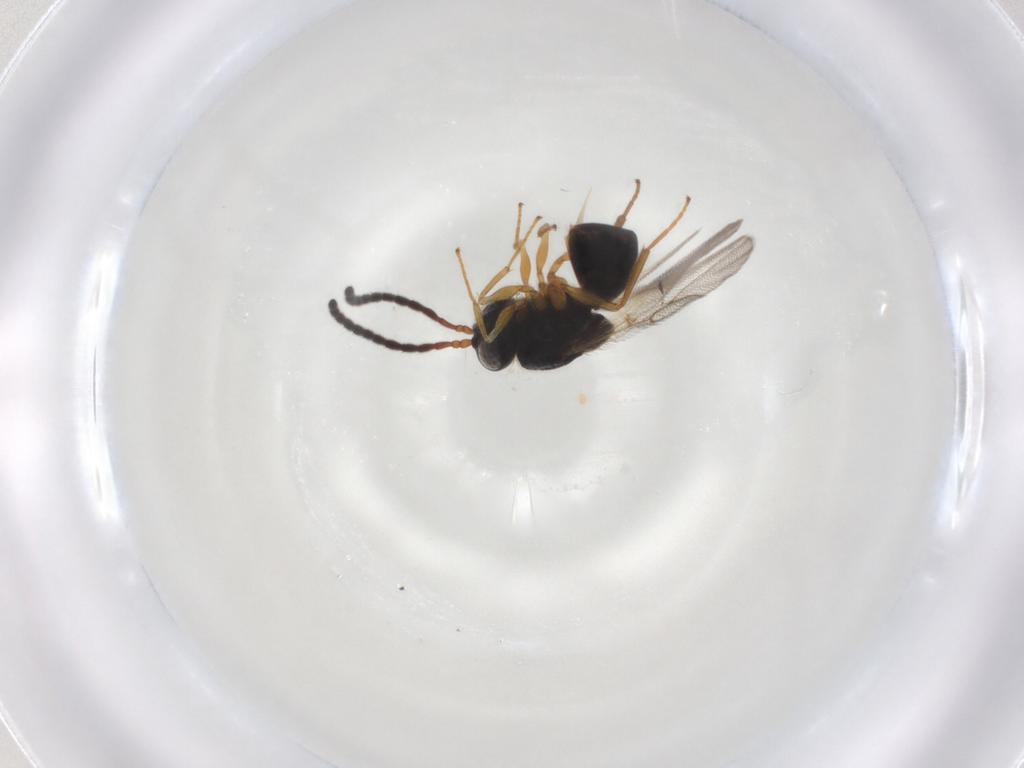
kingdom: Animalia
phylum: Arthropoda
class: Insecta
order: Hymenoptera
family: Figitidae
